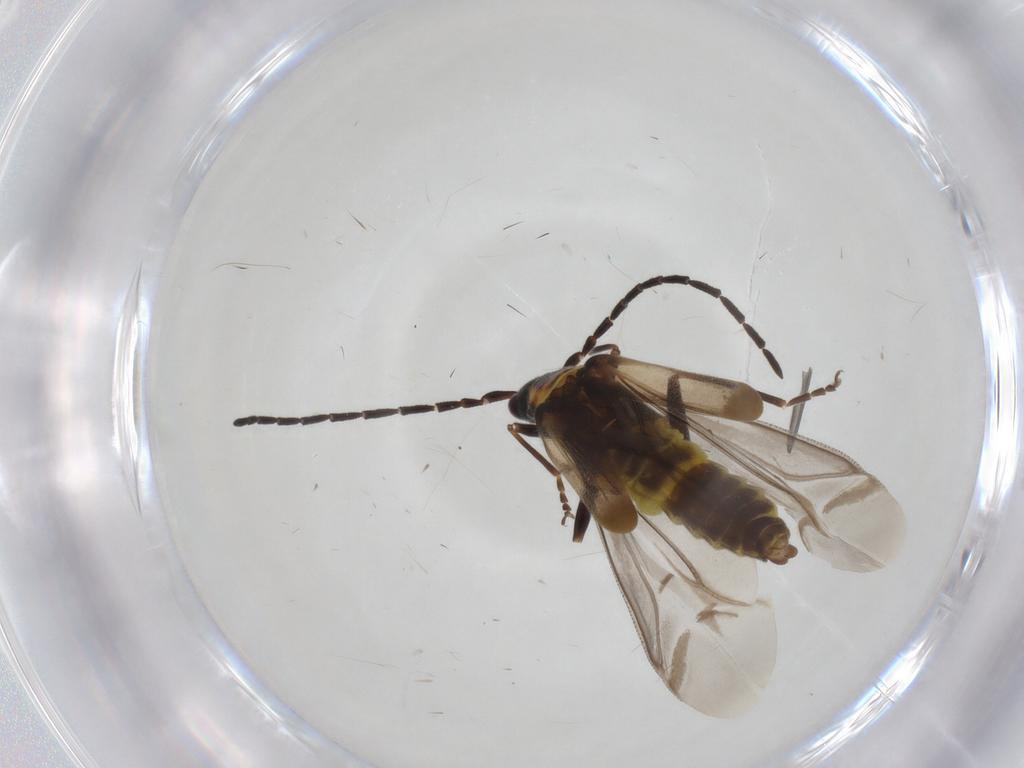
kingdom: Animalia
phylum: Arthropoda
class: Insecta
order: Coleoptera
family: Cantharidae
